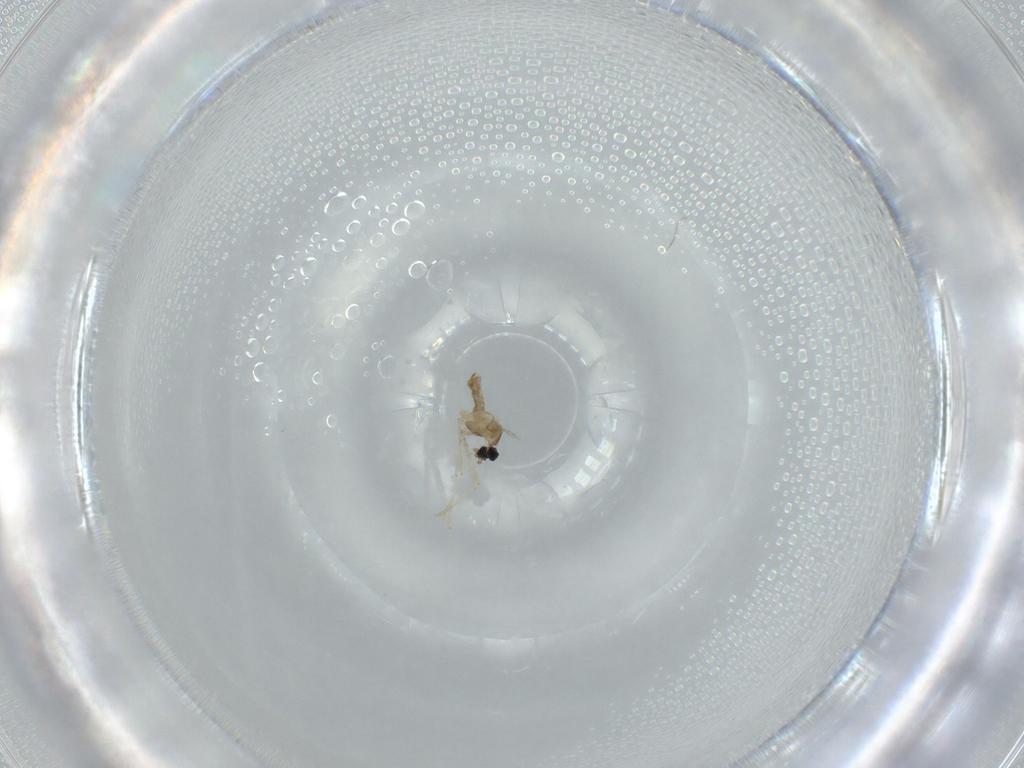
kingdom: Animalia
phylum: Arthropoda
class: Insecta
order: Diptera
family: Cecidomyiidae
